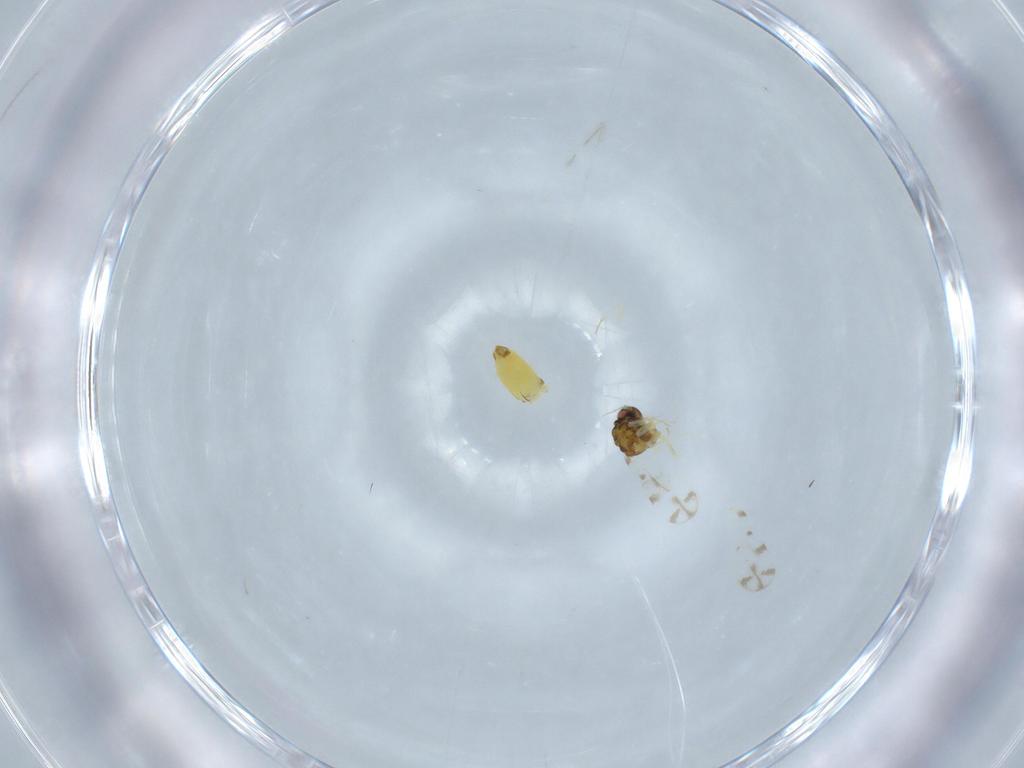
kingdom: Animalia
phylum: Arthropoda
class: Insecta
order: Hemiptera
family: Aleyrodidae
